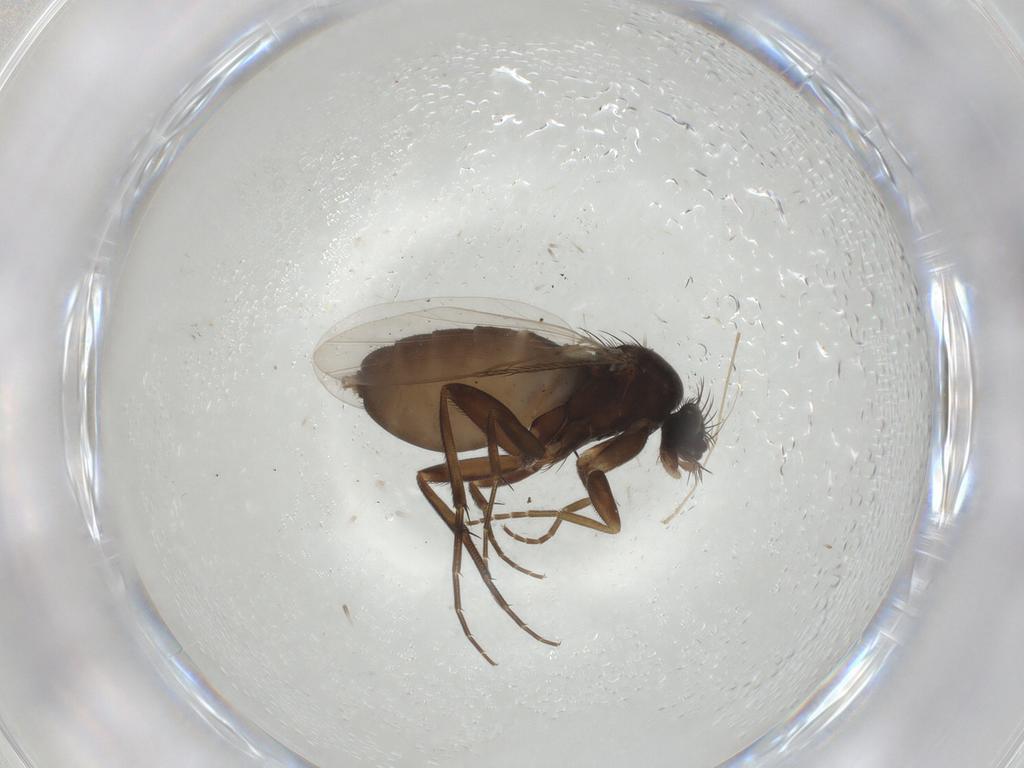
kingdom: Animalia
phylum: Arthropoda
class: Insecta
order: Diptera
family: Phoridae
